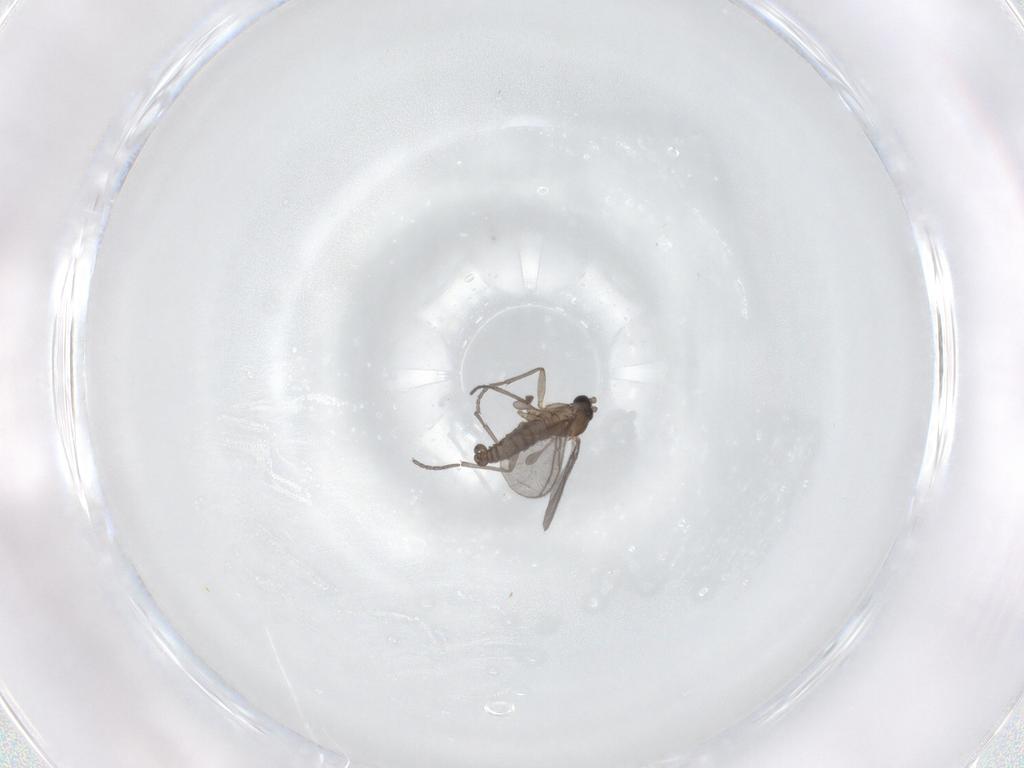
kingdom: Animalia
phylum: Arthropoda
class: Insecta
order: Diptera
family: Sciaridae
